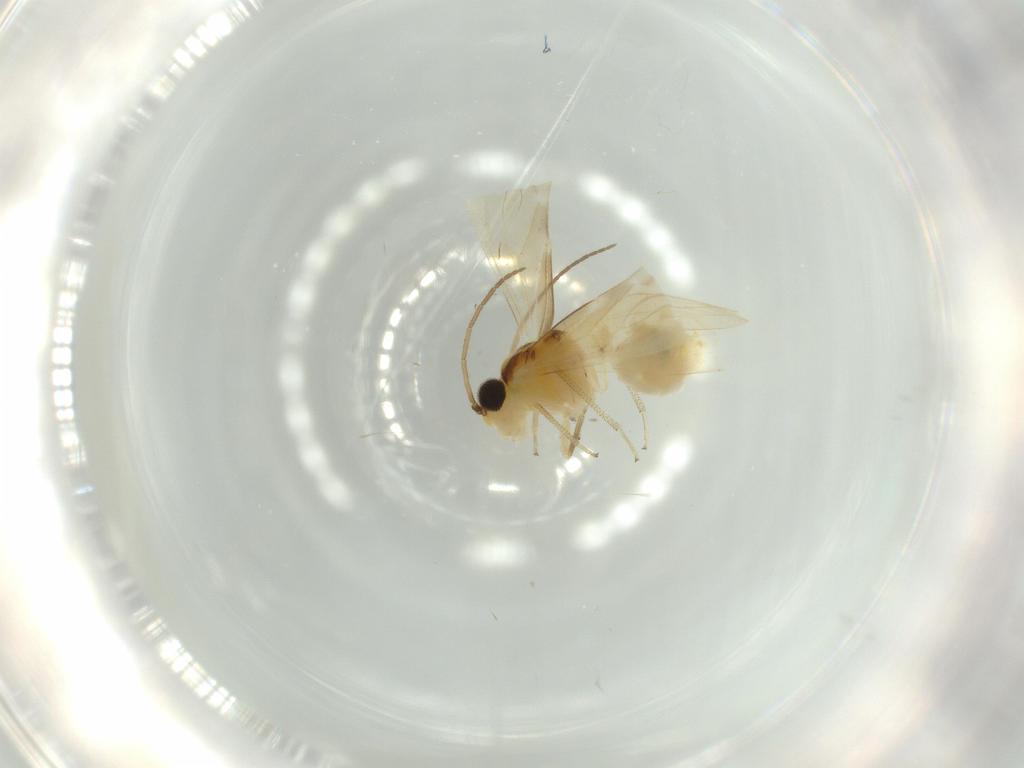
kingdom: Animalia
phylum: Arthropoda
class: Insecta
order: Psocodea
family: Caeciliusidae
